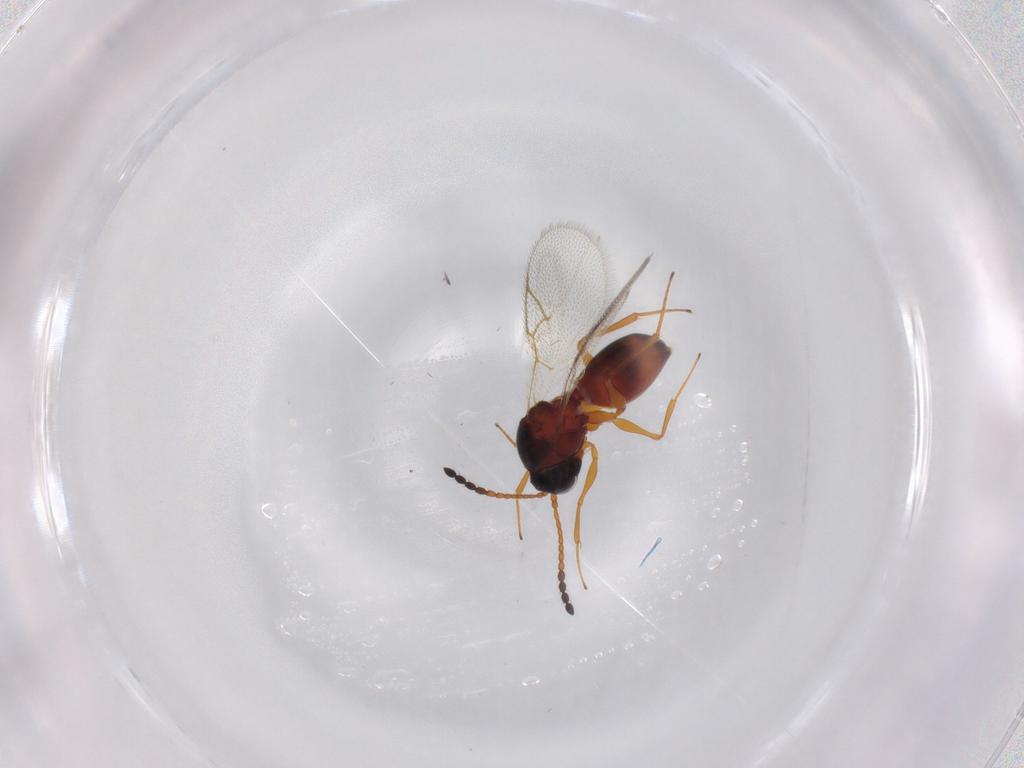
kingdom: Animalia
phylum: Arthropoda
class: Insecta
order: Hymenoptera
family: Figitidae
